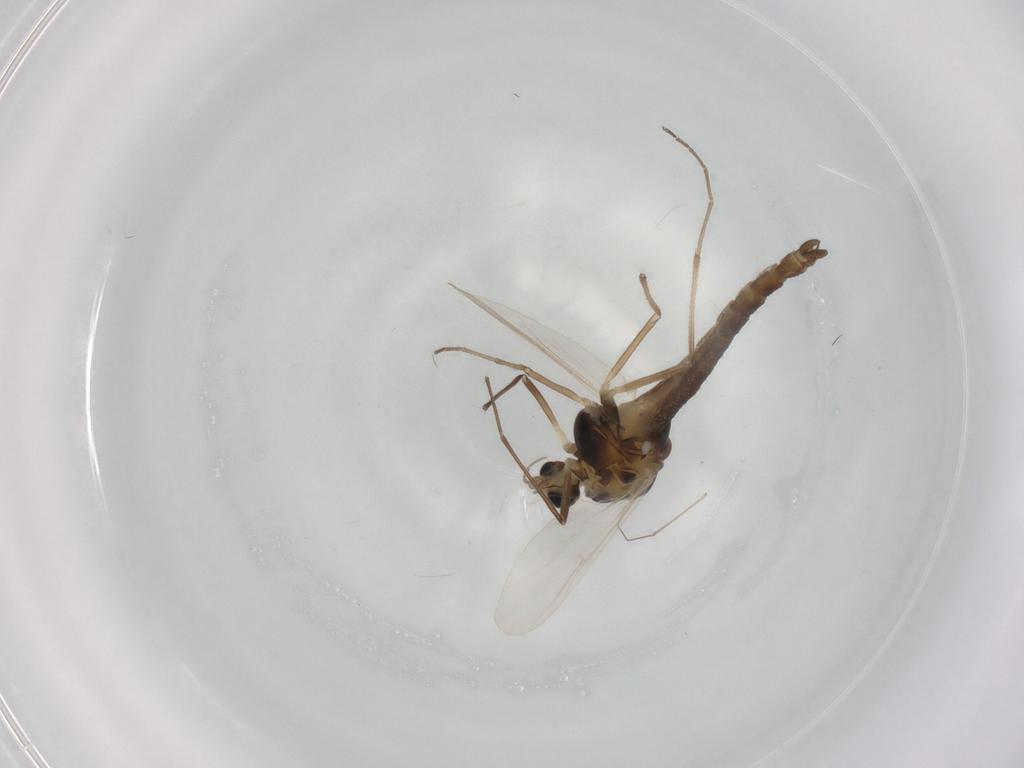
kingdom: Animalia
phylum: Arthropoda
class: Insecta
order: Diptera
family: Chironomidae
